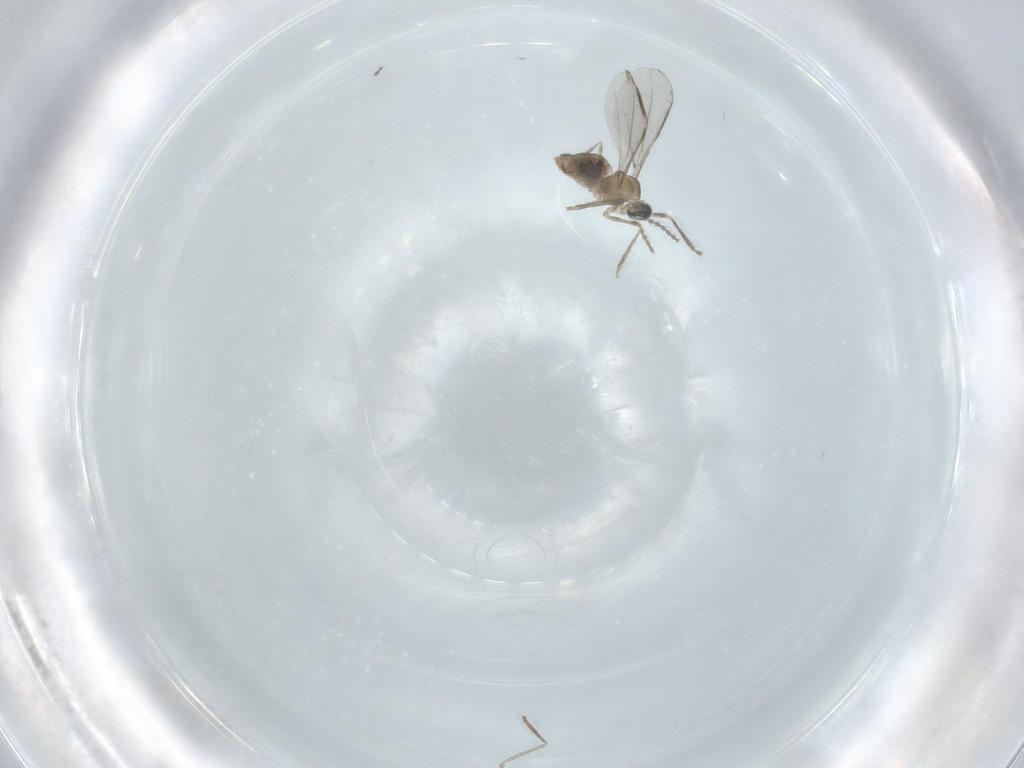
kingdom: Animalia
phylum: Arthropoda
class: Insecta
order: Diptera
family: Cecidomyiidae
